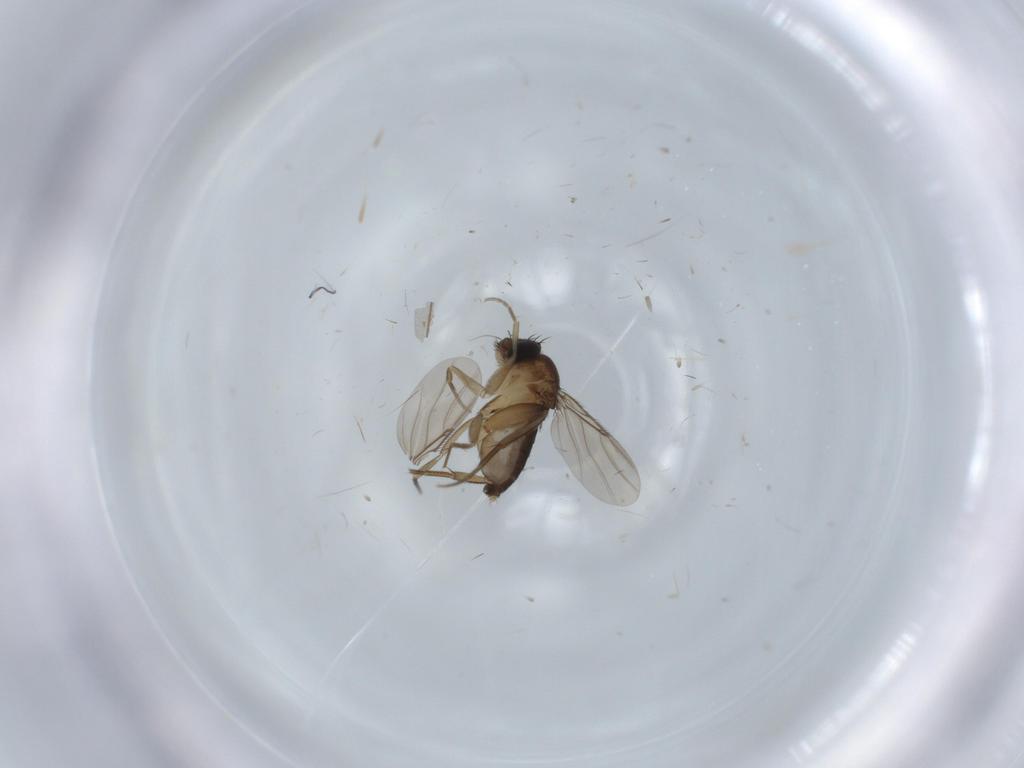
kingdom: Animalia
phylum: Arthropoda
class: Insecta
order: Diptera
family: Phoridae
